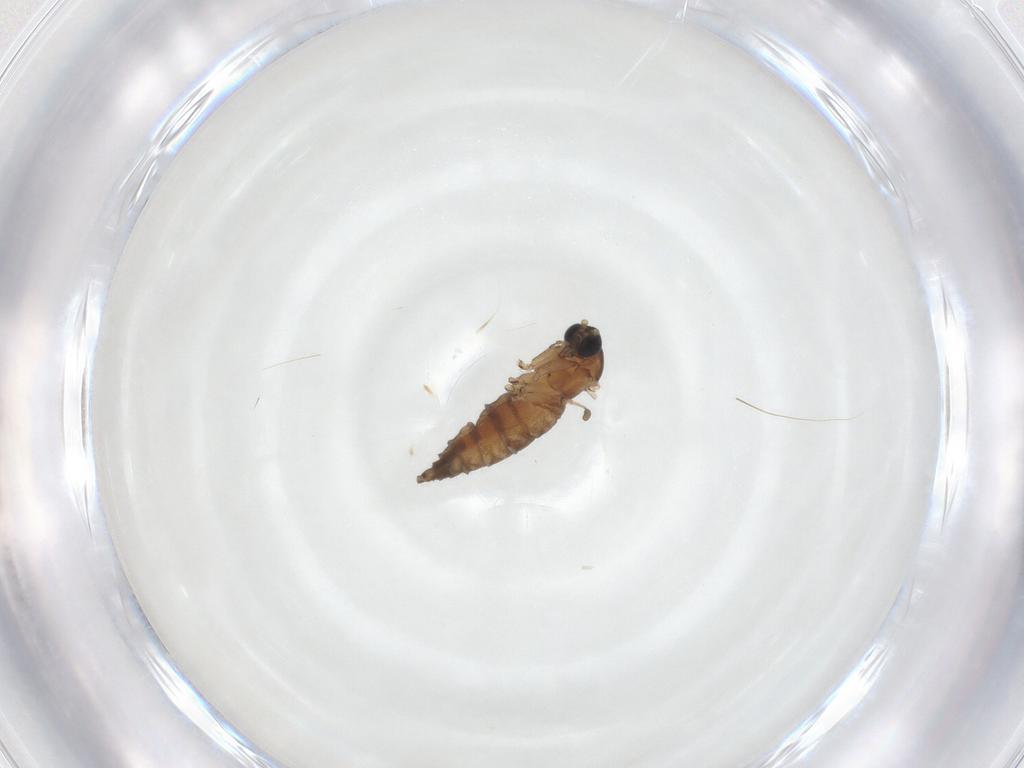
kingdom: Animalia
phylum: Arthropoda
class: Insecta
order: Diptera
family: Sciaridae
